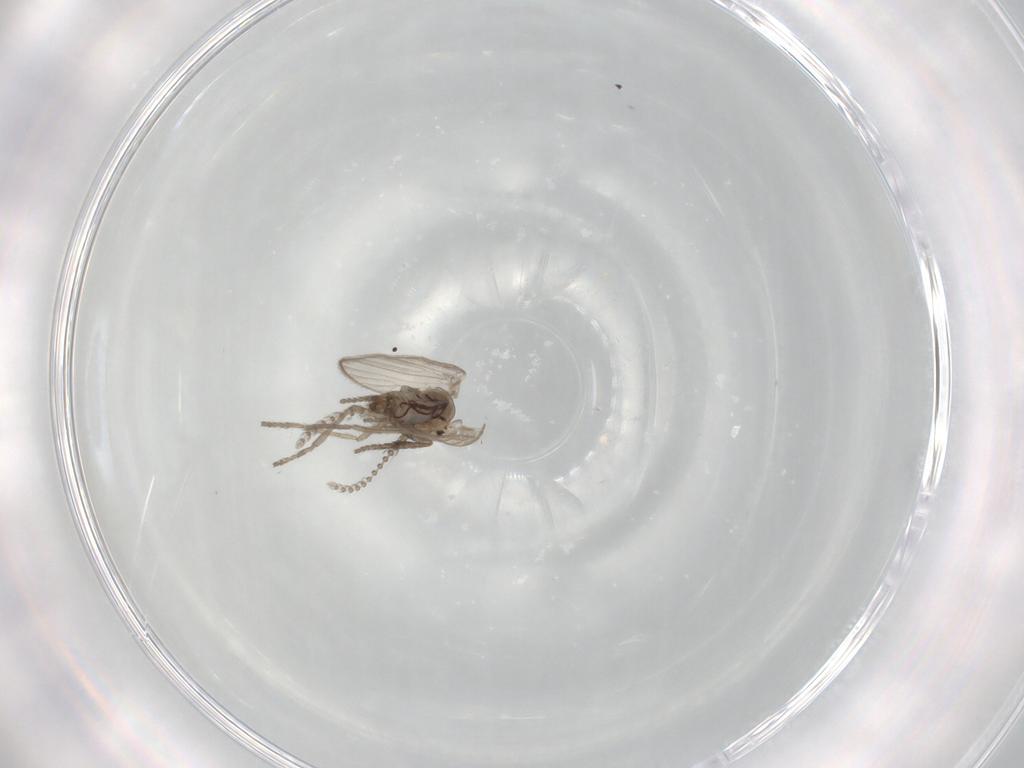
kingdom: Animalia
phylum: Arthropoda
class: Insecta
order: Diptera
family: Psychodidae
